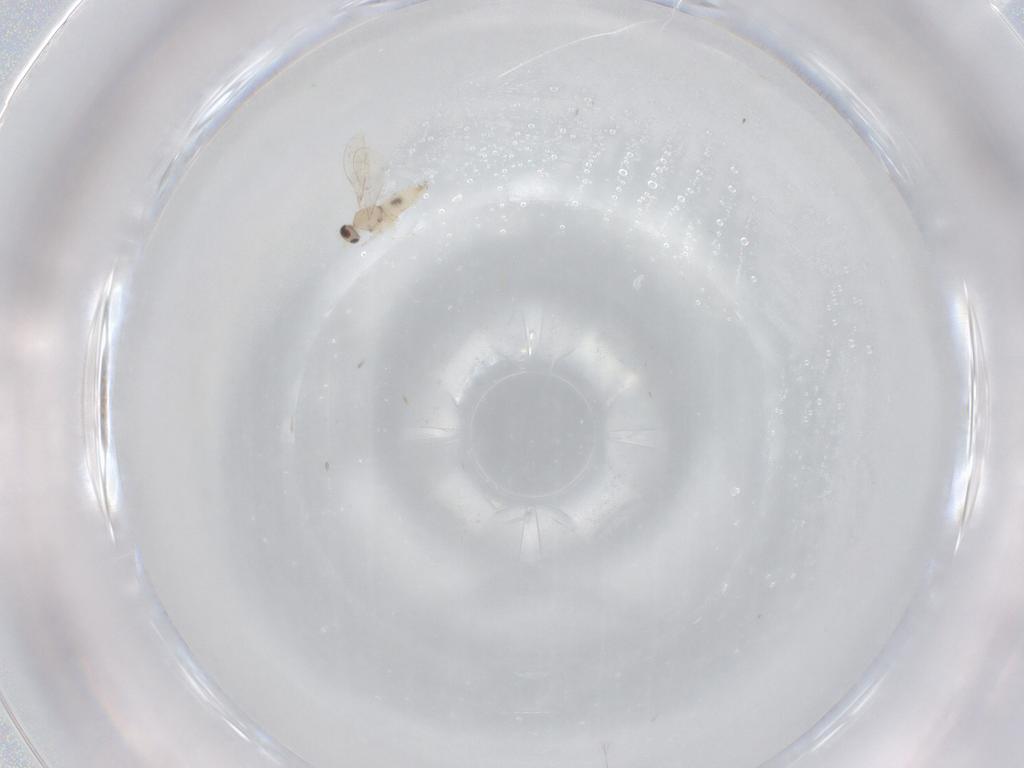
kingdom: Animalia
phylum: Arthropoda
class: Insecta
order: Diptera
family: Cecidomyiidae
